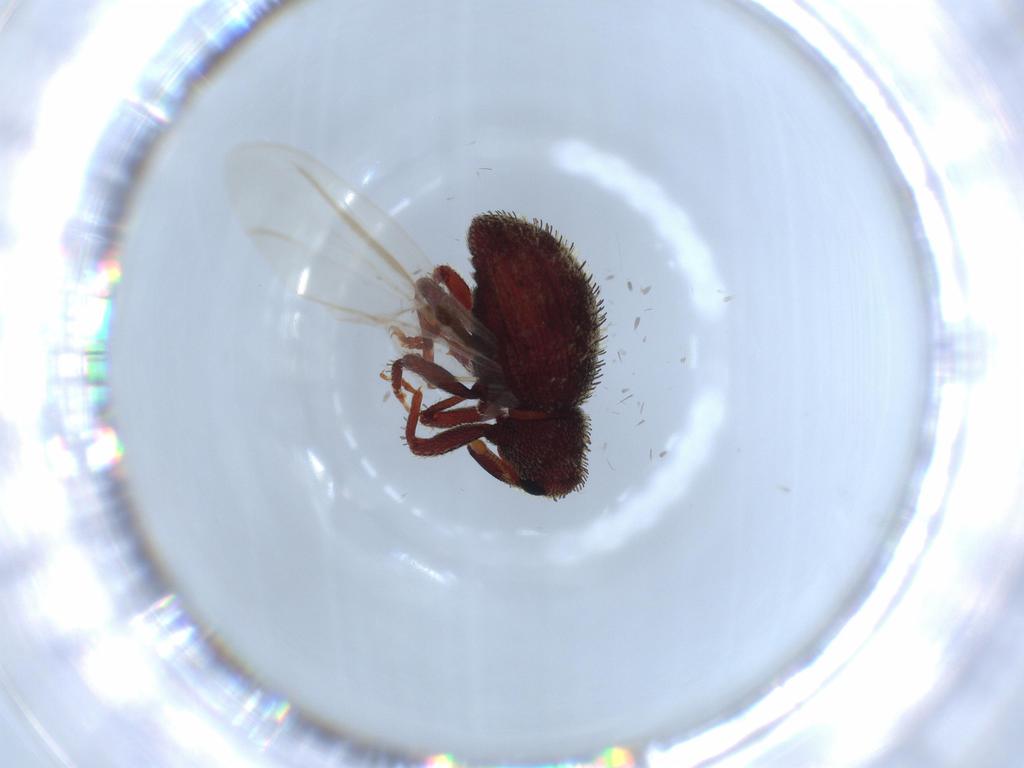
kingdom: Animalia
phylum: Arthropoda
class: Insecta
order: Coleoptera
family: Curculionidae
